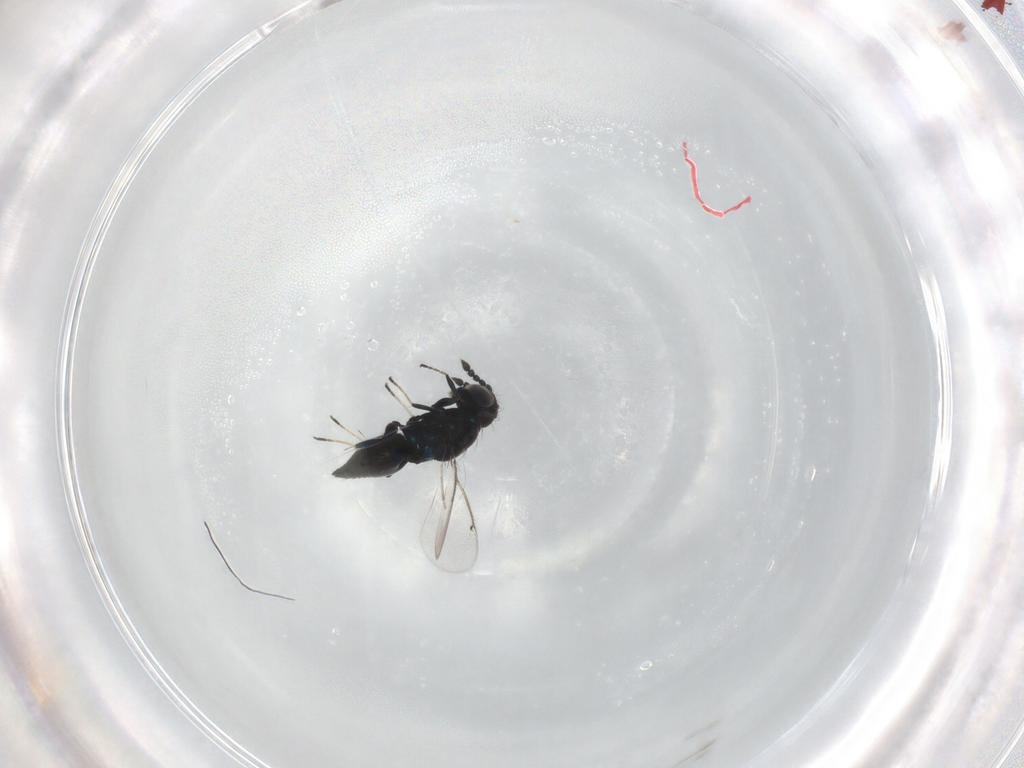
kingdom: Animalia
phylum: Arthropoda
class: Insecta
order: Hymenoptera
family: Eulophidae
